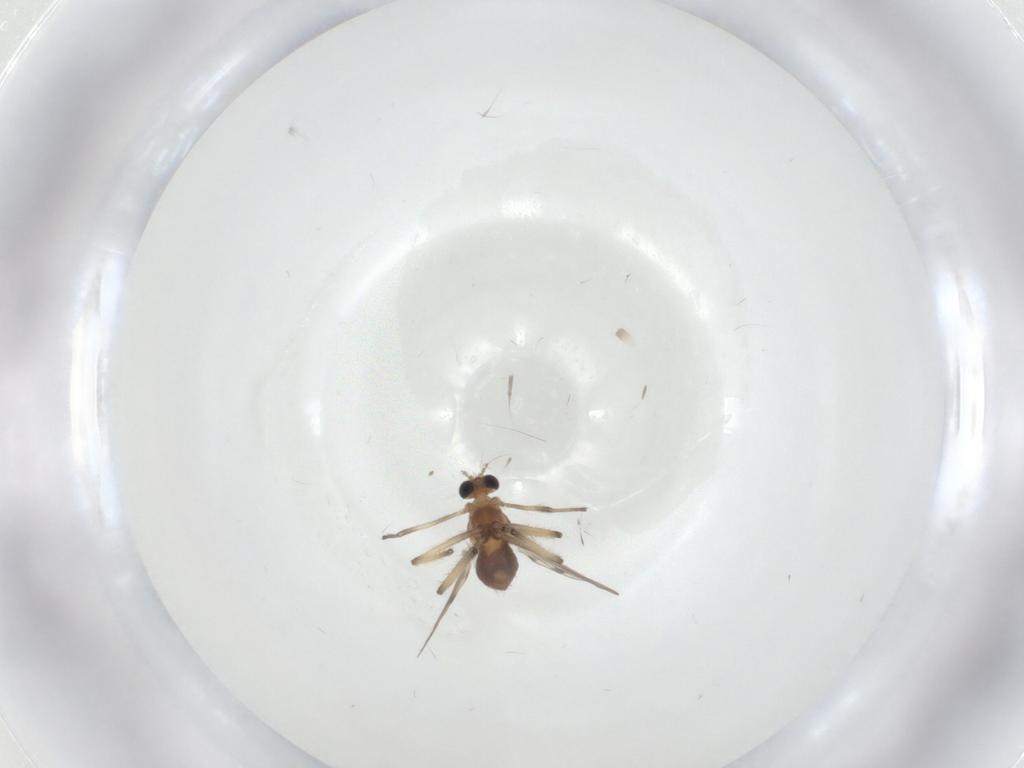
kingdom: Animalia
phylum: Arthropoda
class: Insecta
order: Diptera
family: Chironomidae
